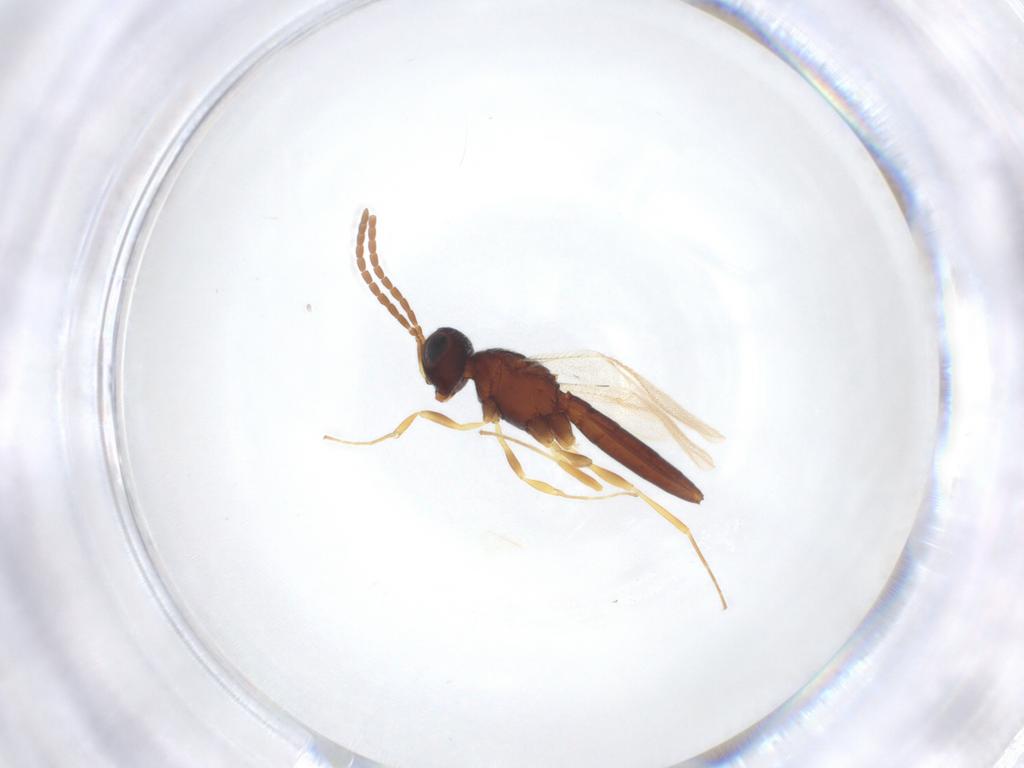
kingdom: Animalia
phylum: Arthropoda
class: Insecta
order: Hymenoptera
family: Scelionidae
